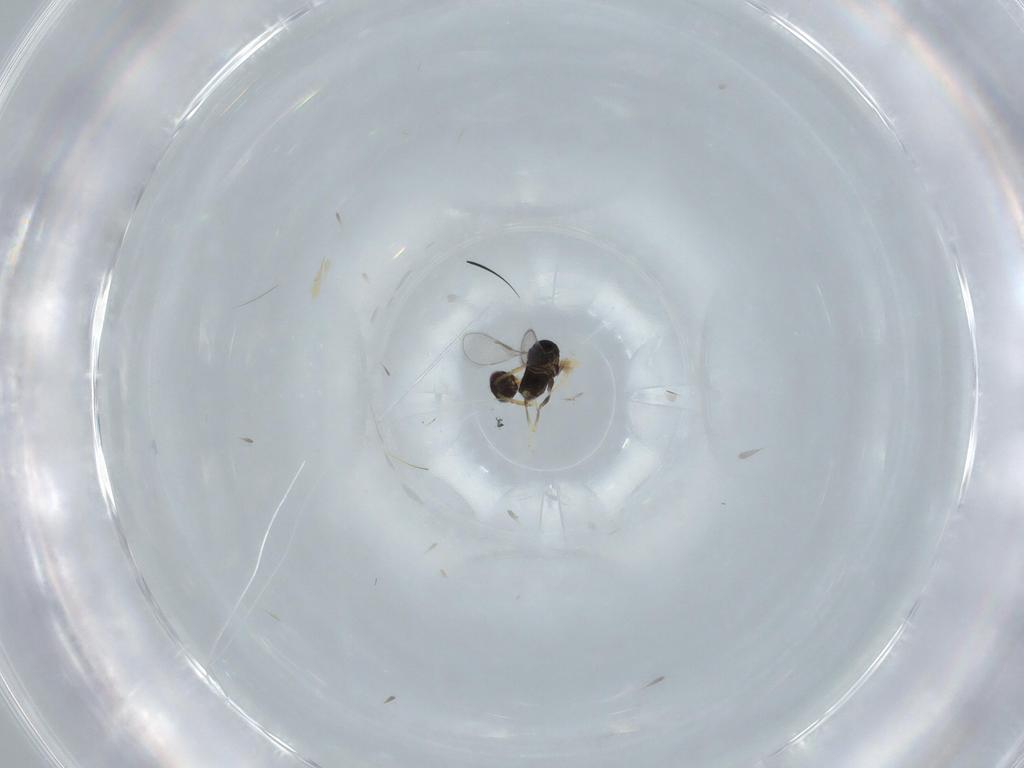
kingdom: Animalia
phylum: Arthropoda
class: Insecta
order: Hymenoptera
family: Aphelinidae
